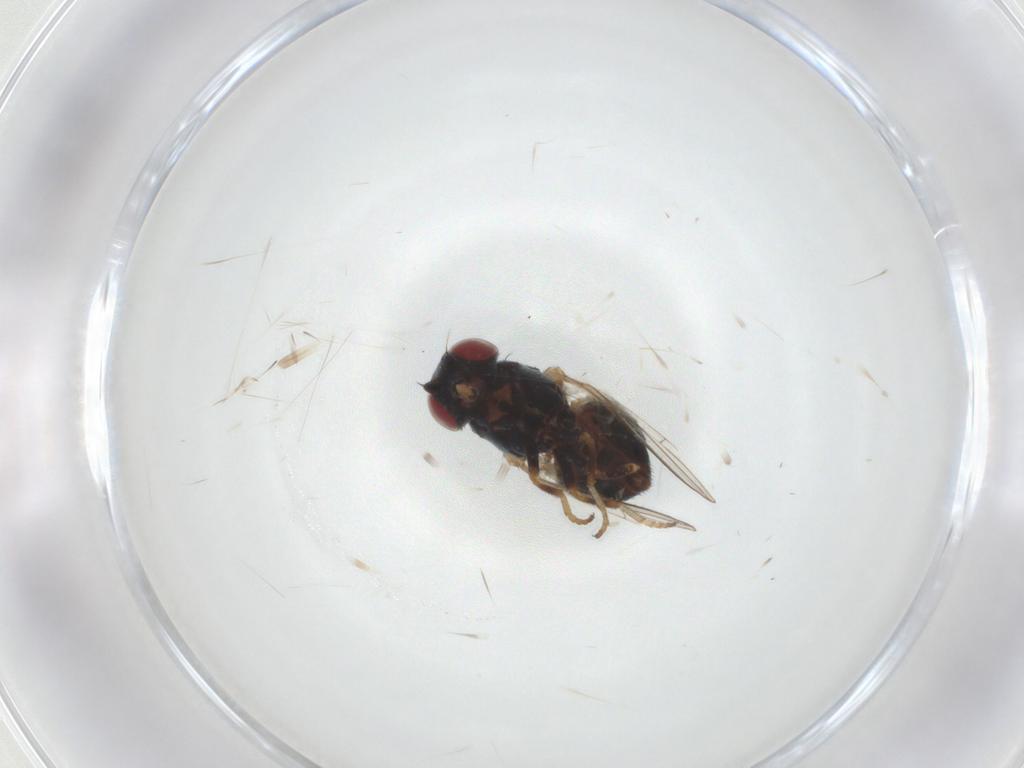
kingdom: Animalia
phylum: Arthropoda
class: Insecta
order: Diptera
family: Chamaemyiidae
